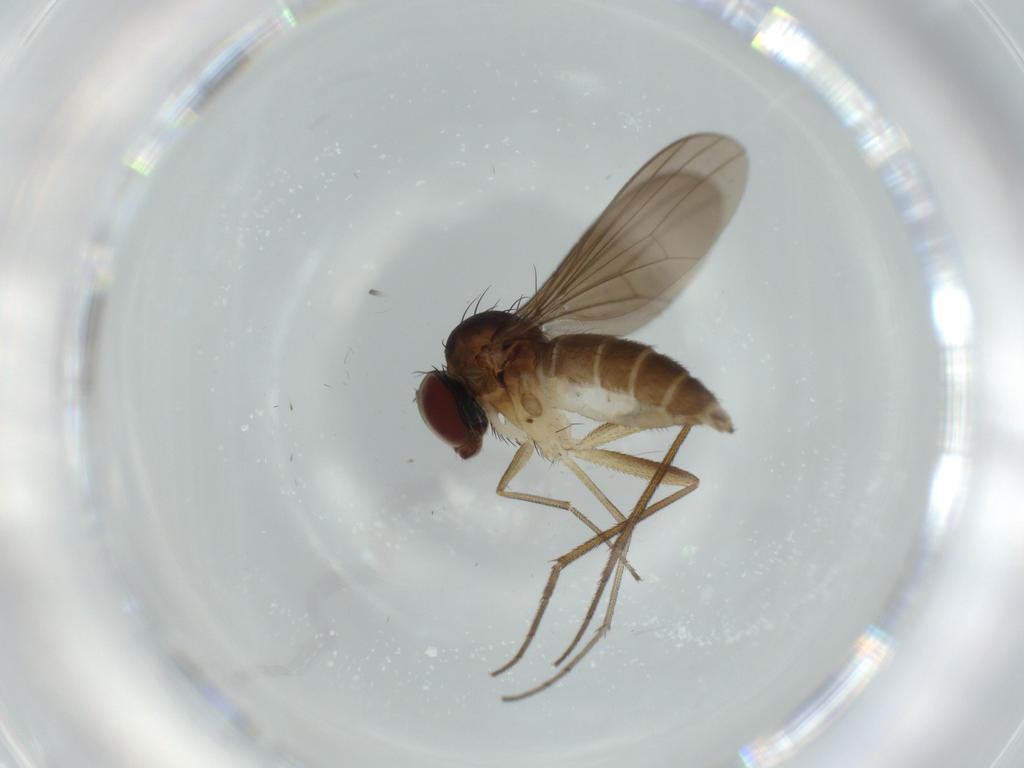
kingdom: Animalia
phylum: Arthropoda
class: Insecta
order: Diptera
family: Dolichopodidae
